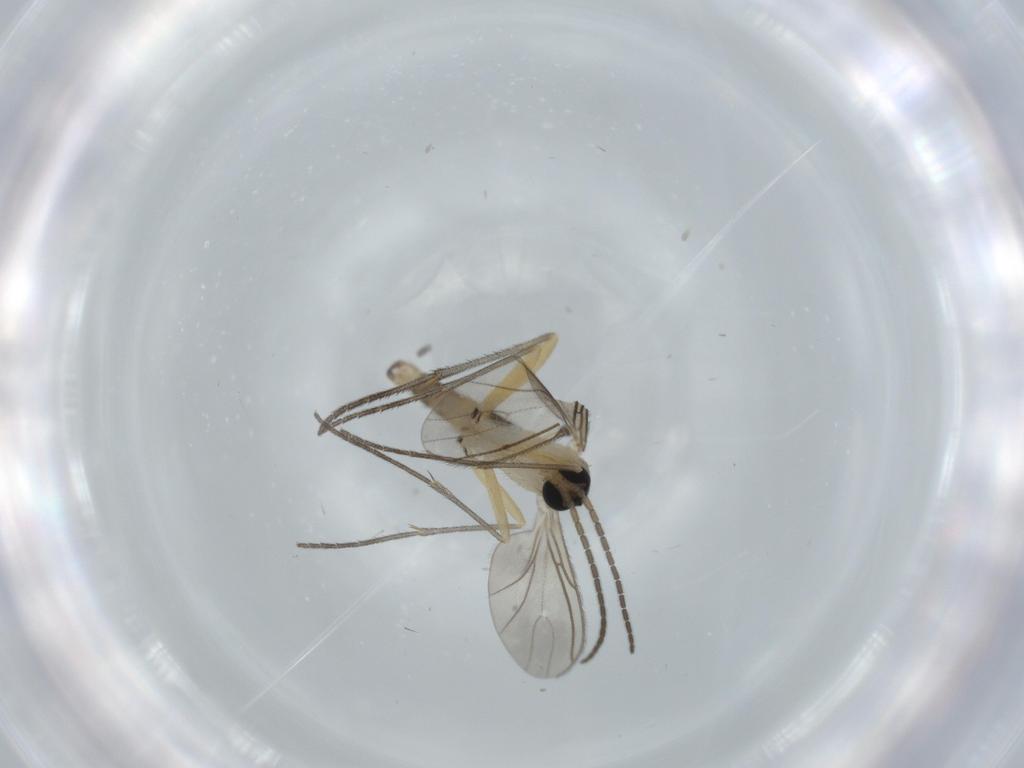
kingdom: Animalia
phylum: Arthropoda
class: Insecta
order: Diptera
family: Sciaridae
